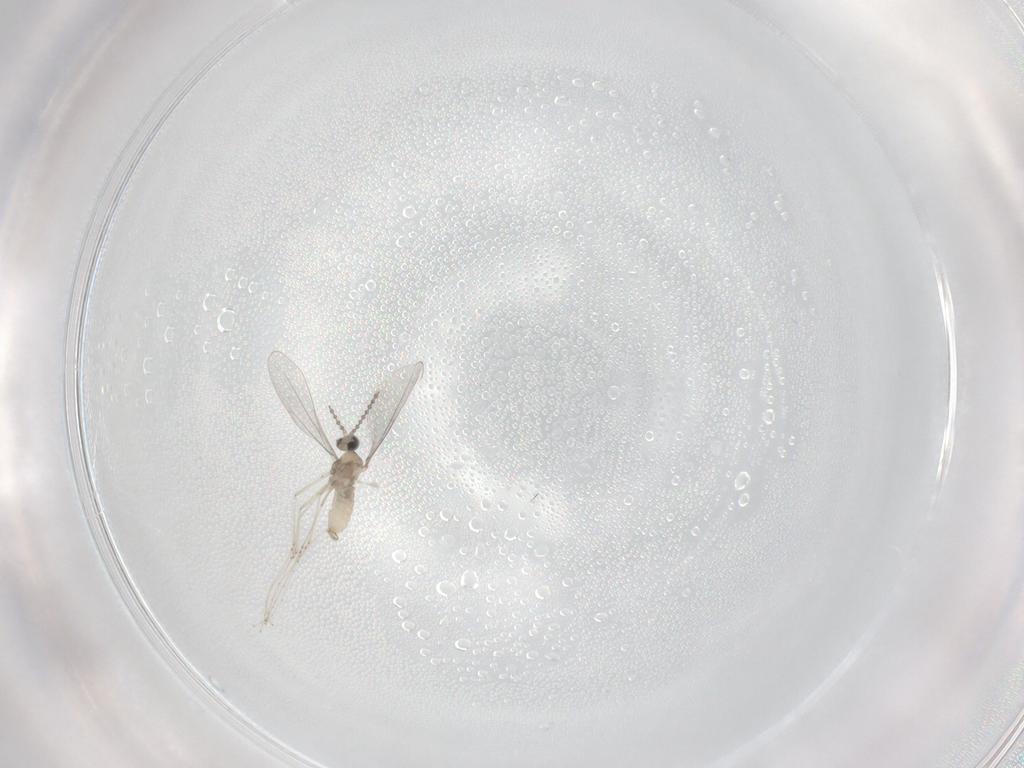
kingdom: Animalia
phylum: Arthropoda
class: Insecta
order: Diptera
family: Cecidomyiidae
